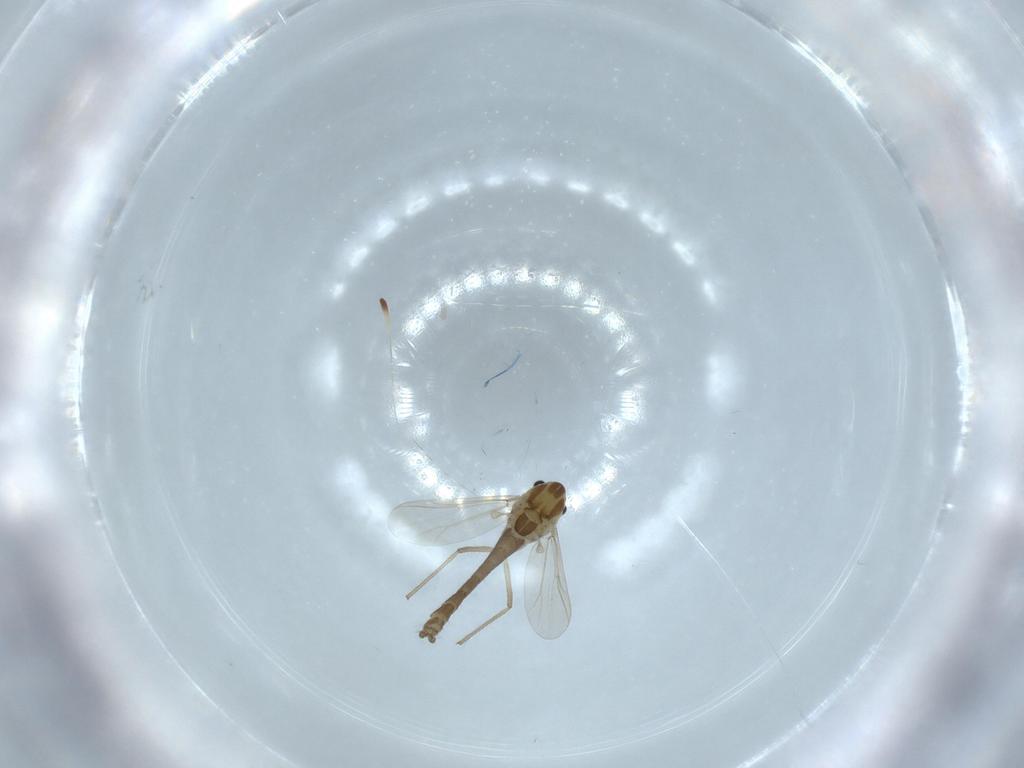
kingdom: Animalia
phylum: Arthropoda
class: Insecta
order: Diptera
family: Chironomidae
